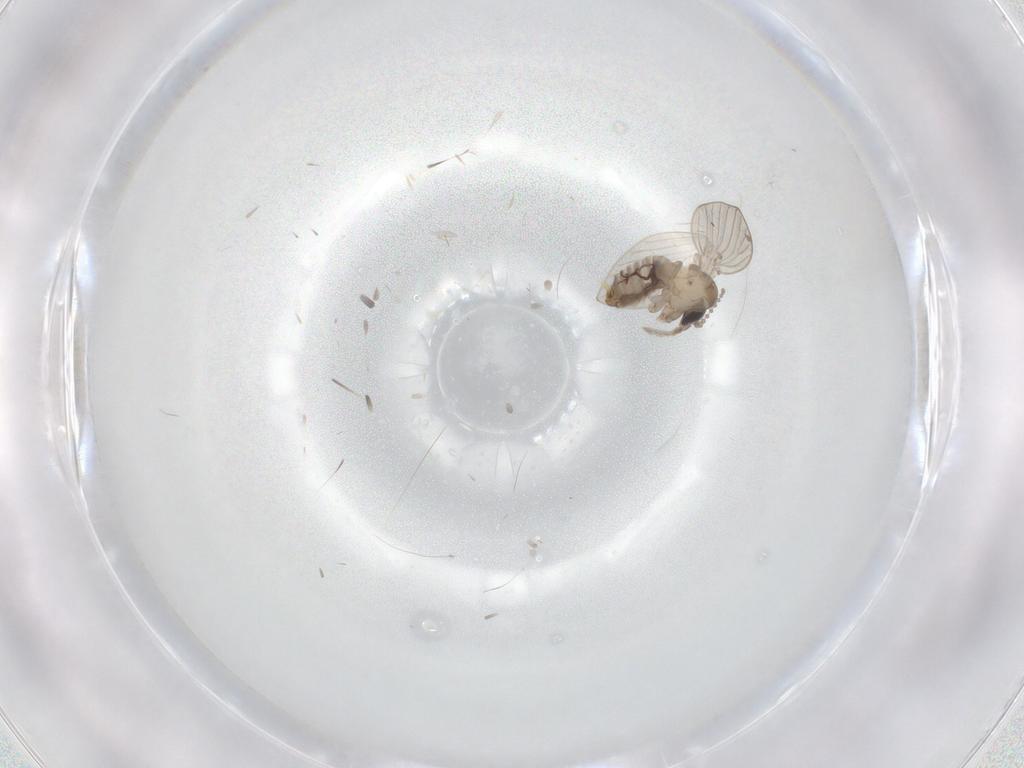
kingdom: Animalia
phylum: Arthropoda
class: Insecta
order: Diptera
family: Psychodidae
